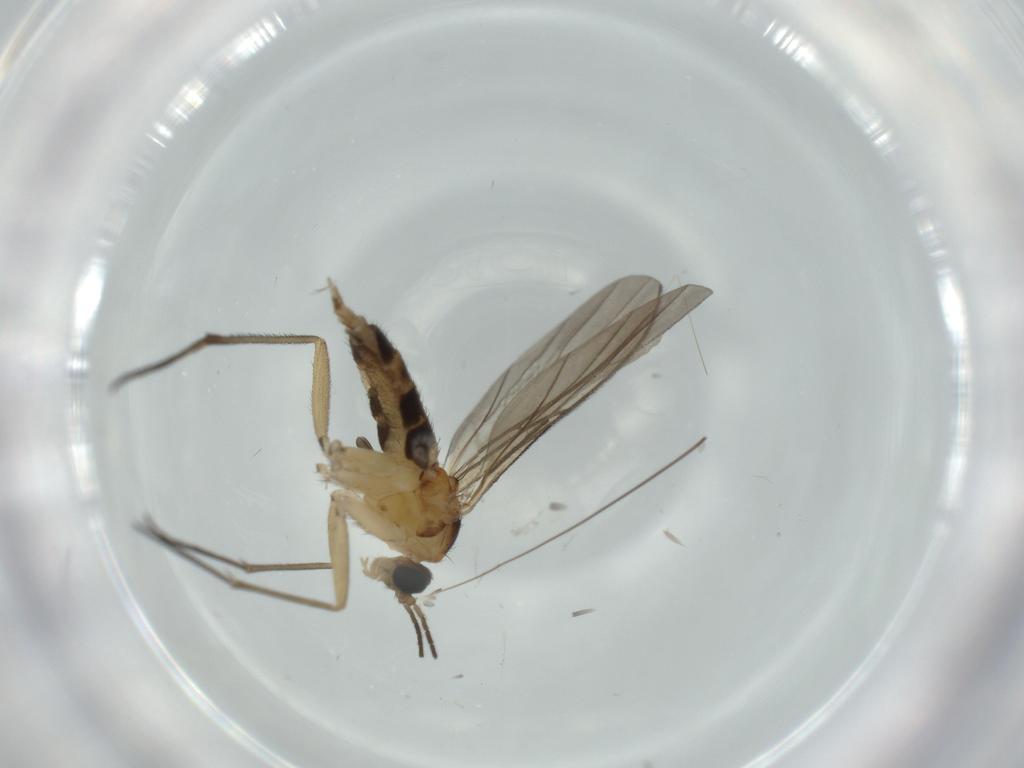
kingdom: Animalia
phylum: Arthropoda
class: Insecta
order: Diptera
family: Sciaridae
